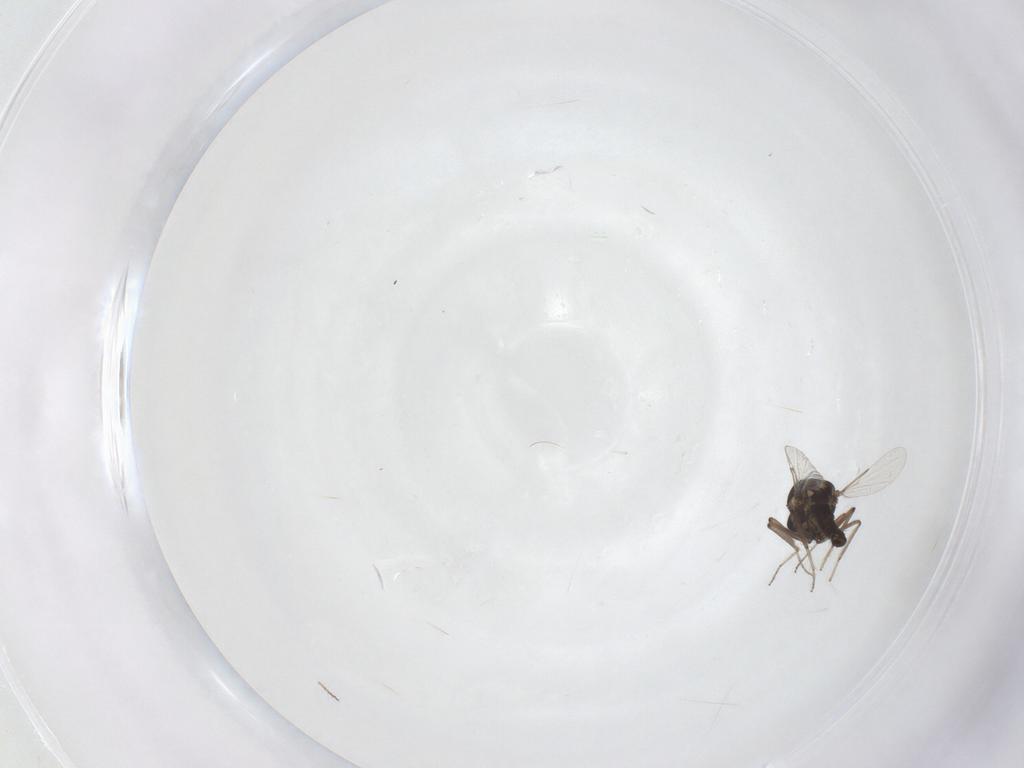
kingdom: Animalia
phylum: Arthropoda
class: Insecta
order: Diptera
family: Ceratopogonidae
